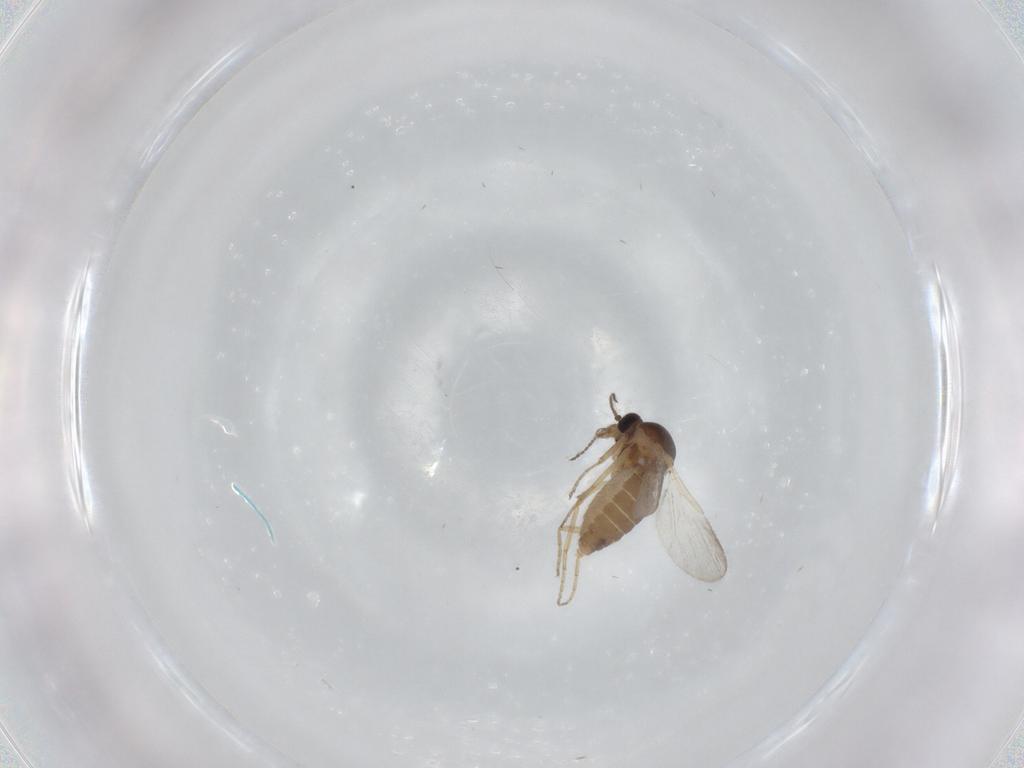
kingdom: Animalia
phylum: Arthropoda
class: Insecta
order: Diptera
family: Ceratopogonidae
